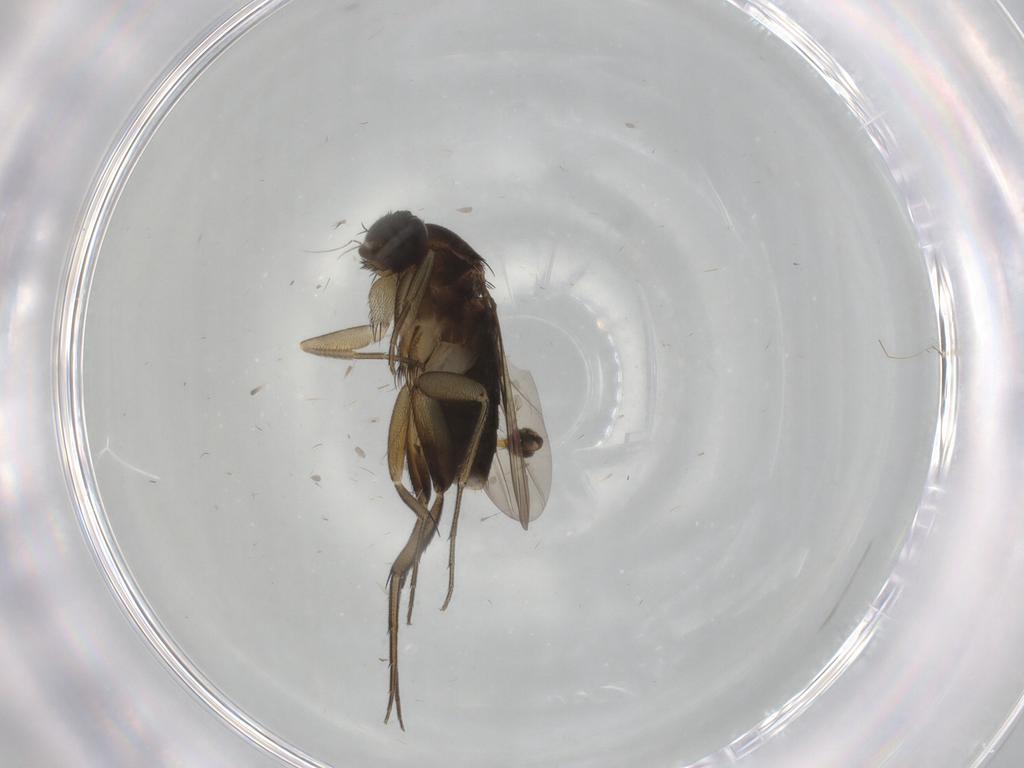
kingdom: Animalia
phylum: Arthropoda
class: Insecta
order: Diptera
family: Phoridae
